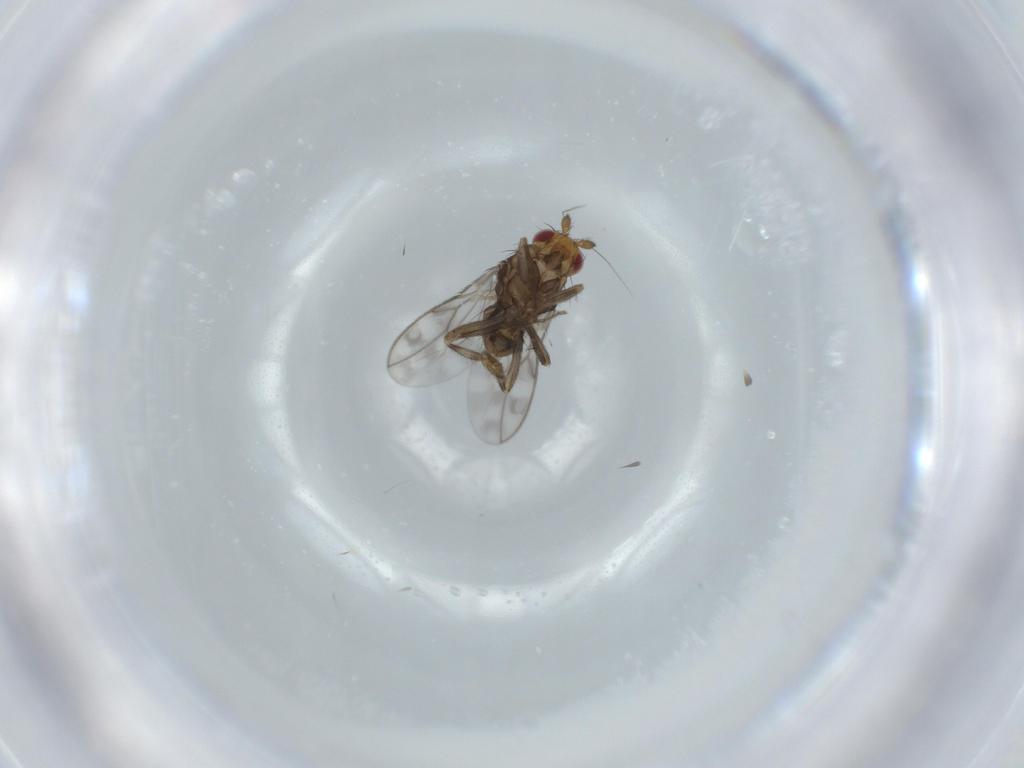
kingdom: Animalia
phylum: Arthropoda
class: Insecta
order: Diptera
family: Sphaeroceridae
